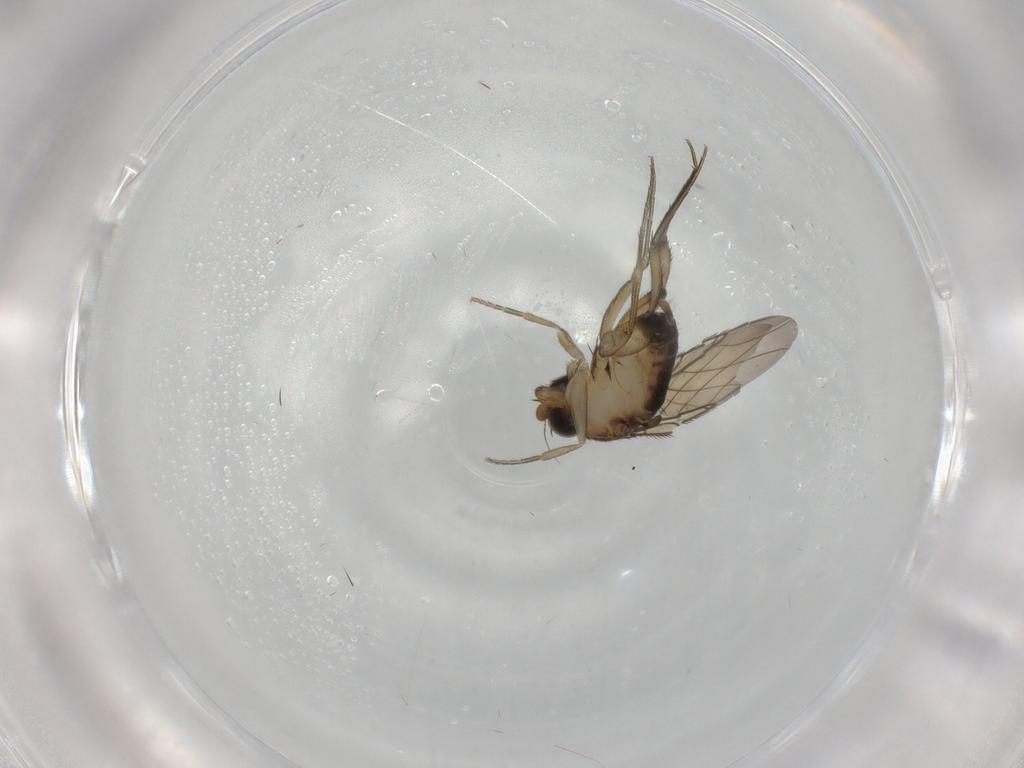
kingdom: Animalia
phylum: Arthropoda
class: Insecta
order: Diptera
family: Phoridae
